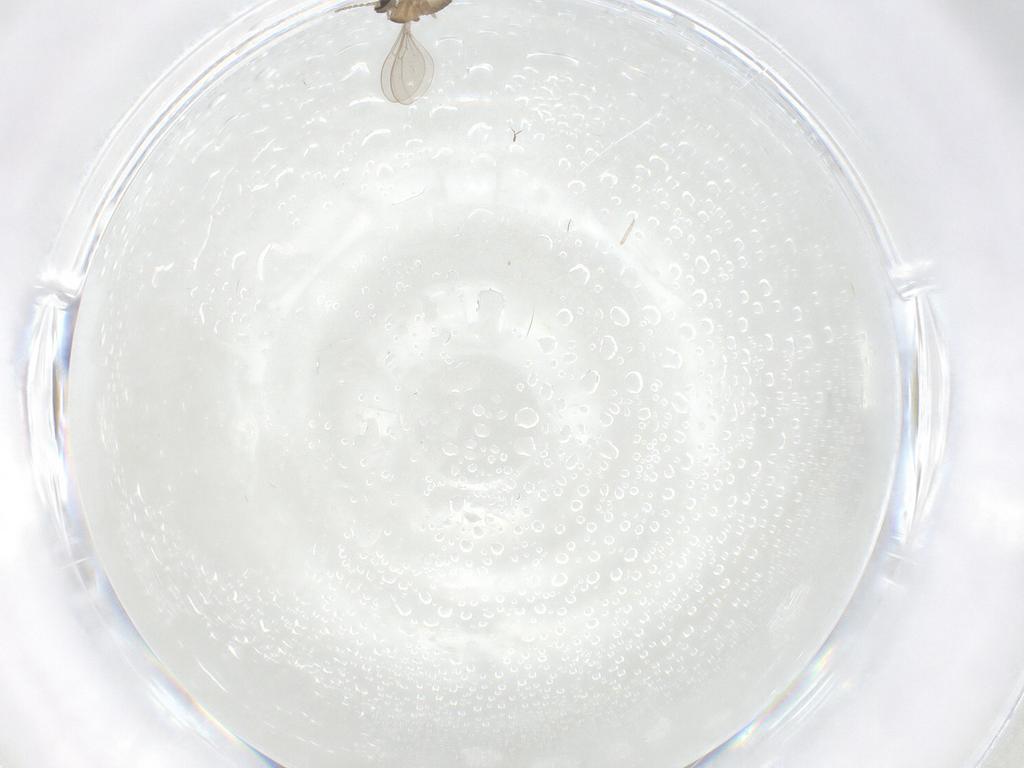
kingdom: Animalia
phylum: Arthropoda
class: Insecta
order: Diptera
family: Cecidomyiidae
